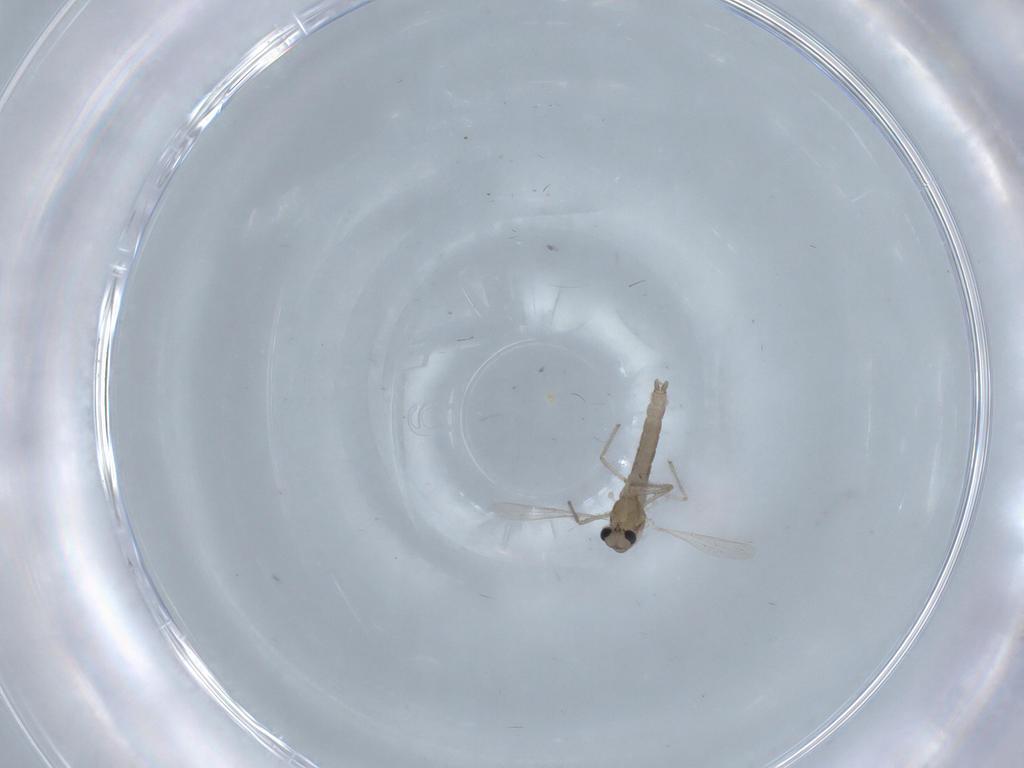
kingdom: Animalia
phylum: Arthropoda
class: Insecta
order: Diptera
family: Chironomidae
